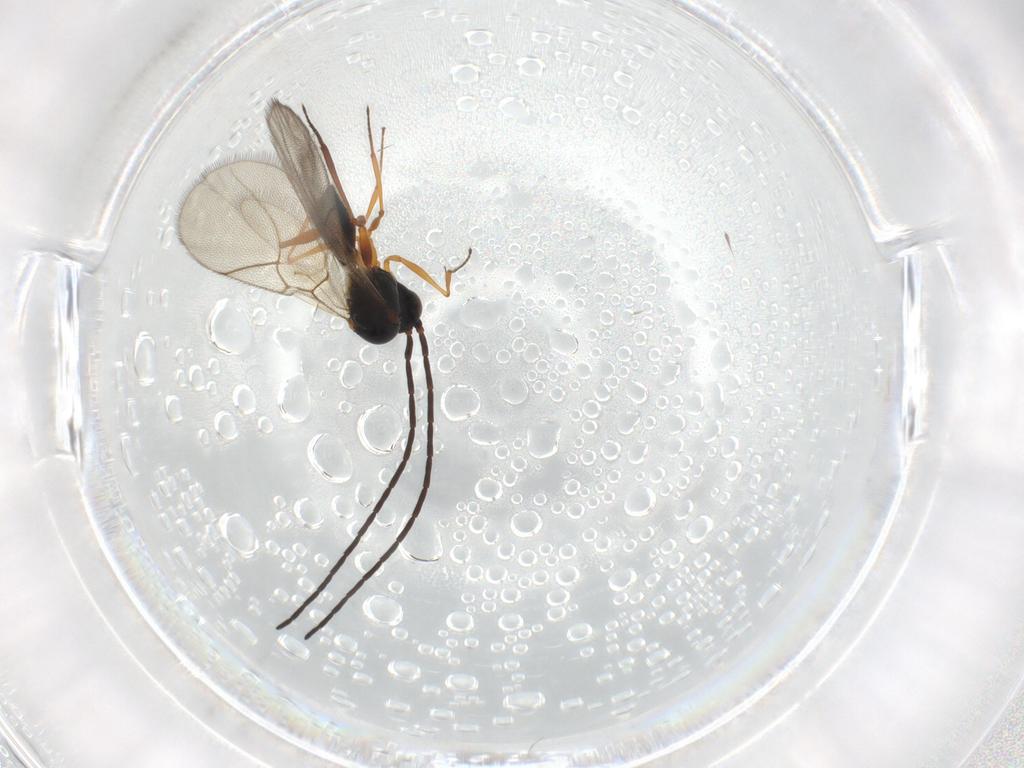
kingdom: Animalia
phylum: Arthropoda
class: Insecta
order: Hymenoptera
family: Figitidae
